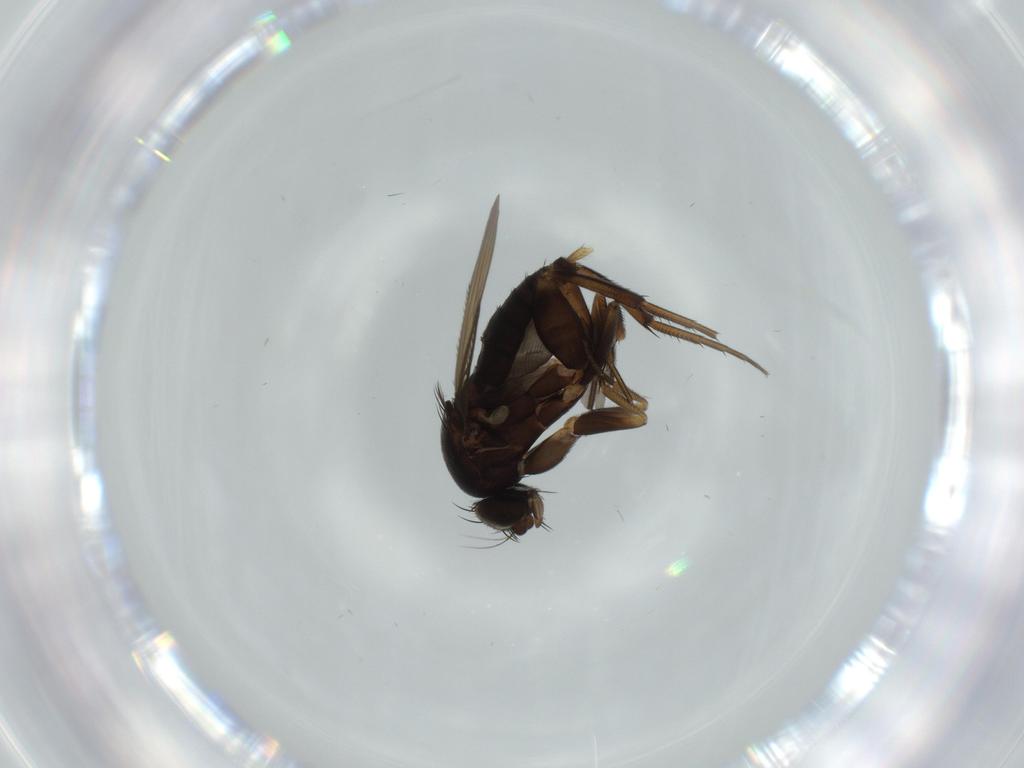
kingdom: Animalia
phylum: Arthropoda
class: Insecta
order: Diptera
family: Phoridae
